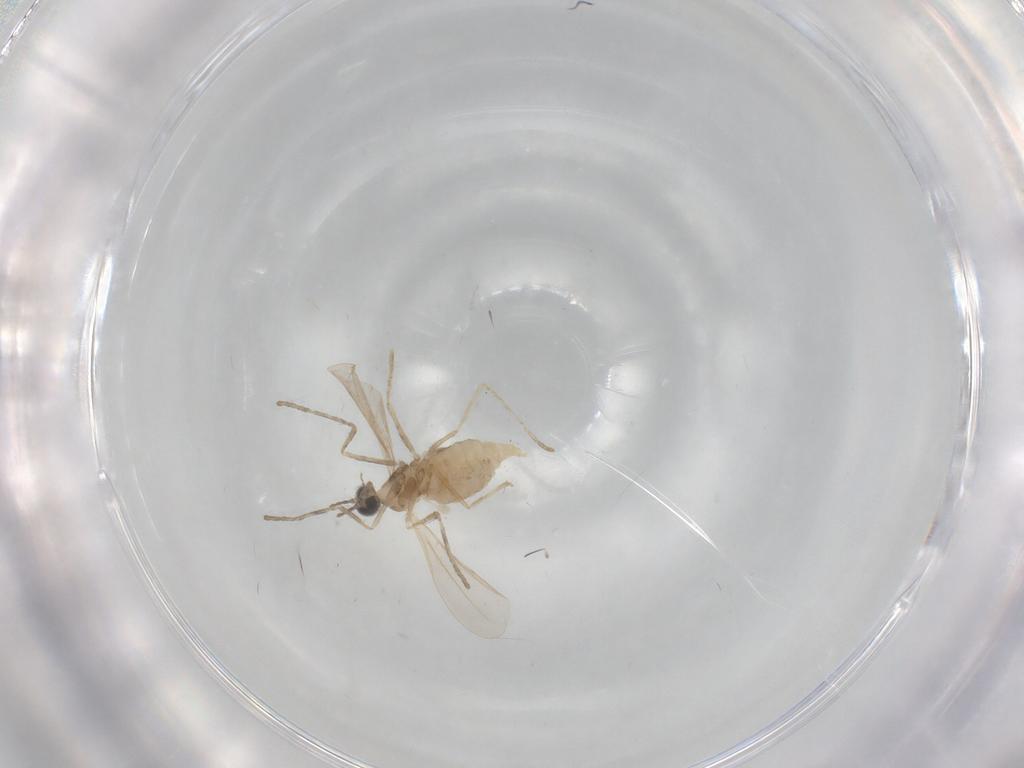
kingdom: Animalia
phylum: Arthropoda
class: Insecta
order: Diptera
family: Cecidomyiidae
